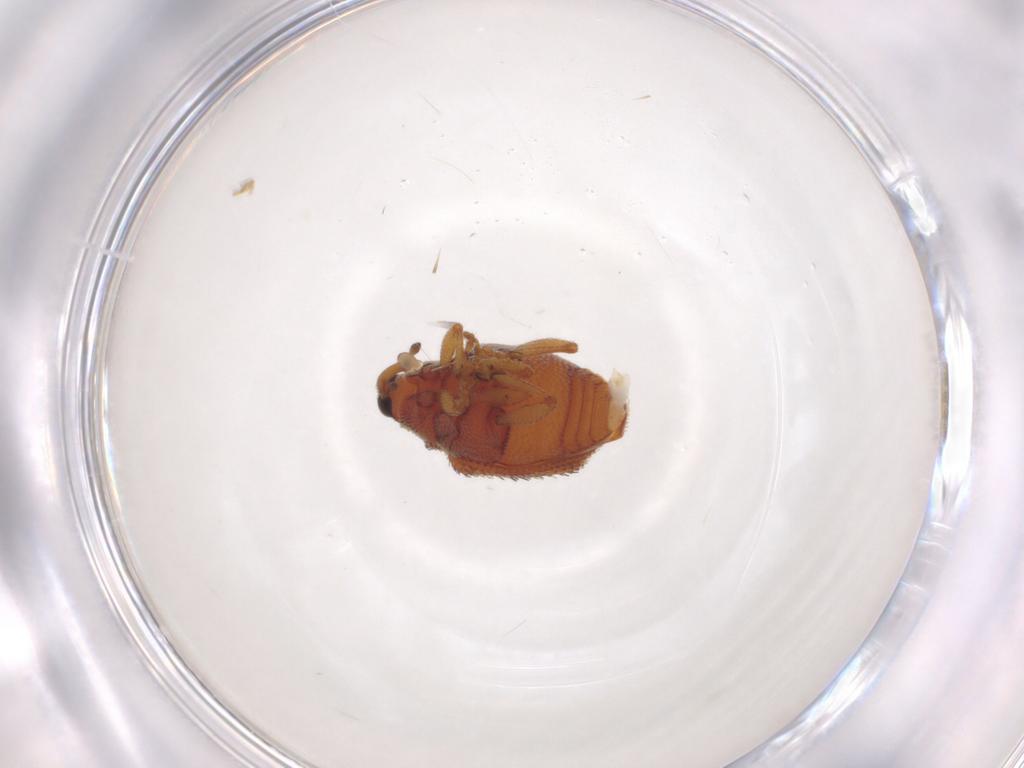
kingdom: Animalia
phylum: Arthropoda
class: Insecta
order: Coleoptera
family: Curculionidae
